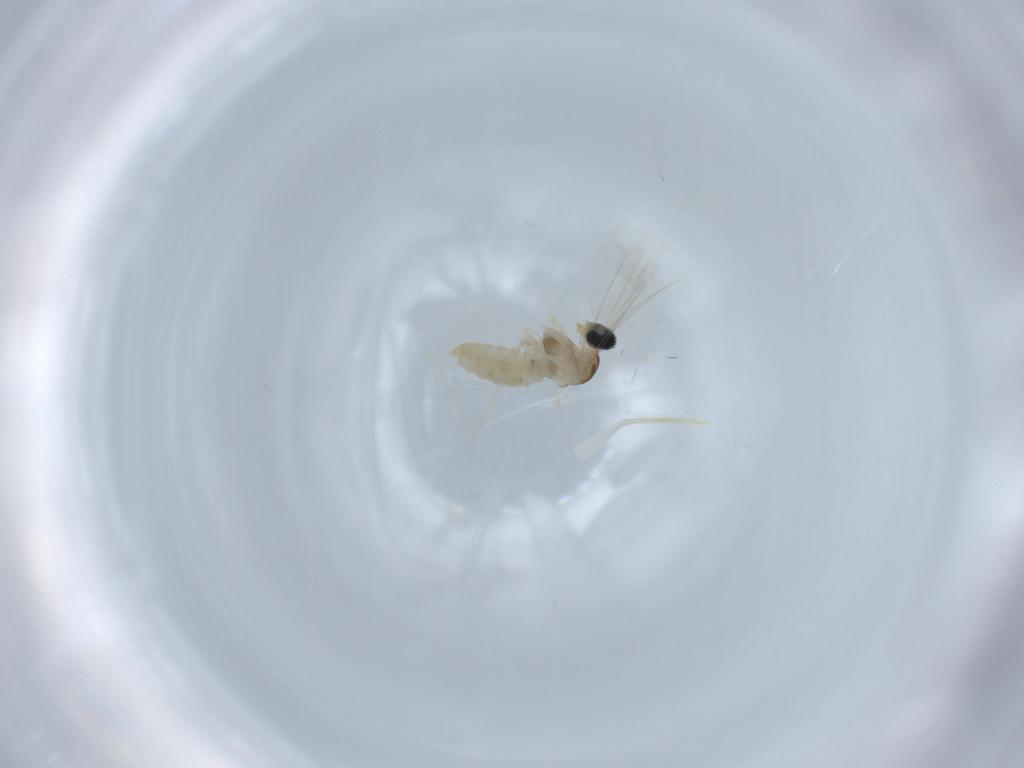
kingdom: Animalia
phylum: Arthropoda
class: Insecta
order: Diptera
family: Cecidomyiidae
